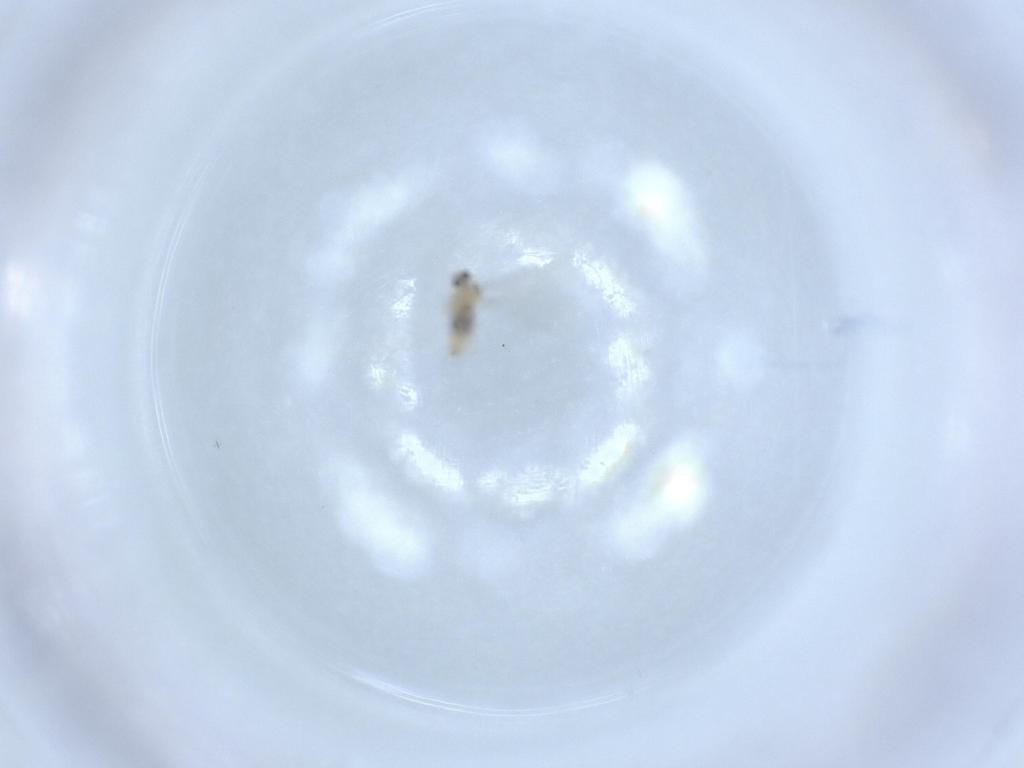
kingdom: Animalia
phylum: Arthropoda
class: Insecta
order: Diptera
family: Cecidomyiidae
